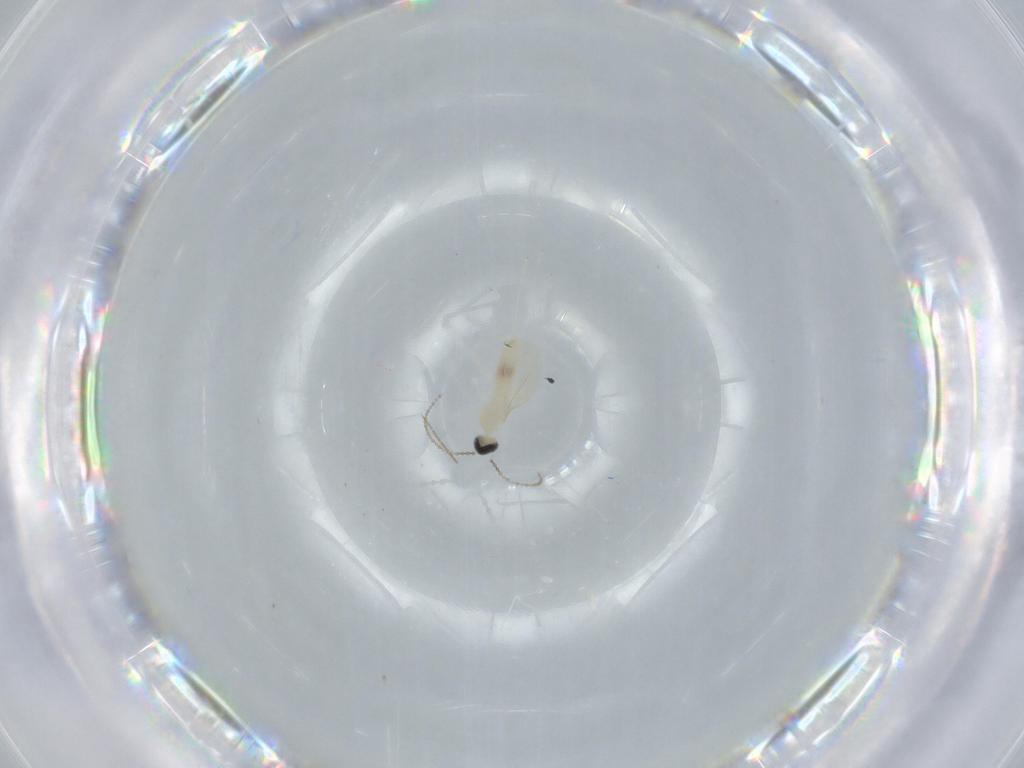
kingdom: Animalia
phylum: Arthropoda
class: Insecta
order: Diptera
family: Cecidomyiidae
